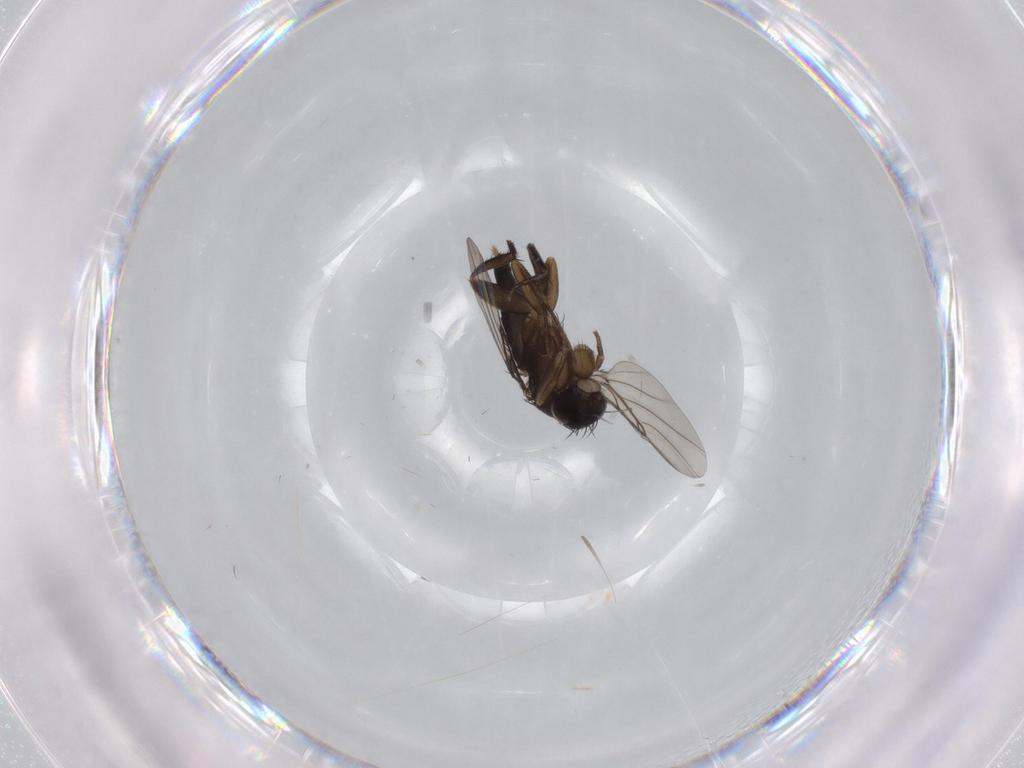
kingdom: Animalia
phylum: Arthropoda
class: Insecta
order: Diptera
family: Phoridae
